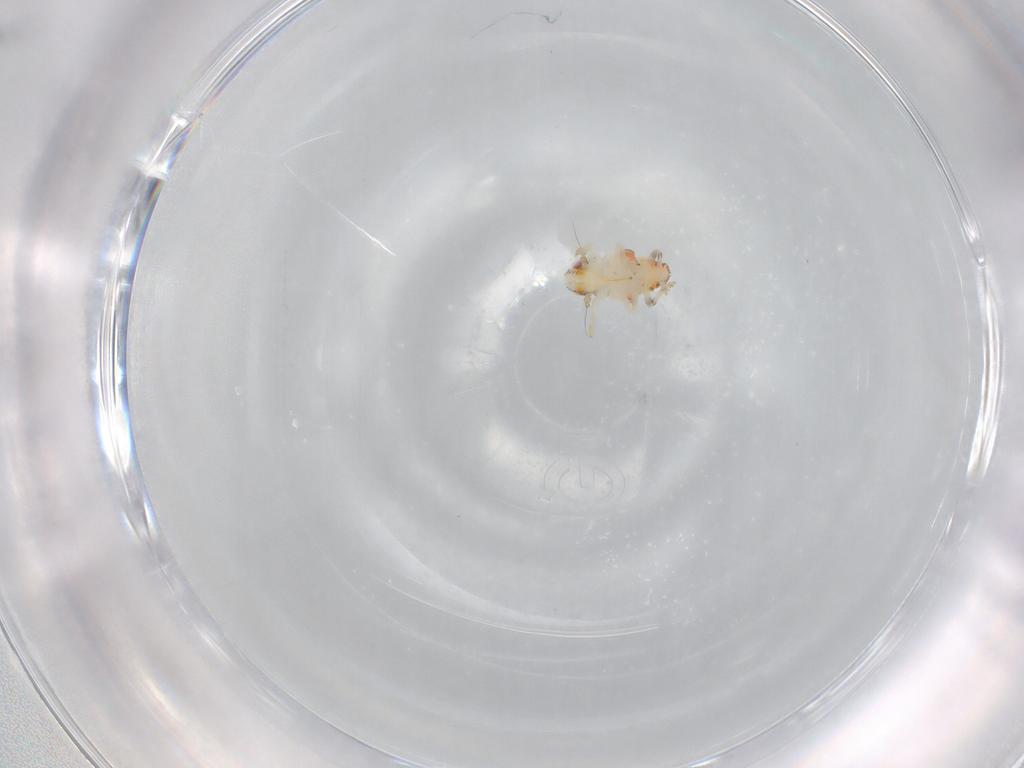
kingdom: Animalia
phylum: Arthropoda
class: Insecta
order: Hemiptera
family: Nogodinidae
